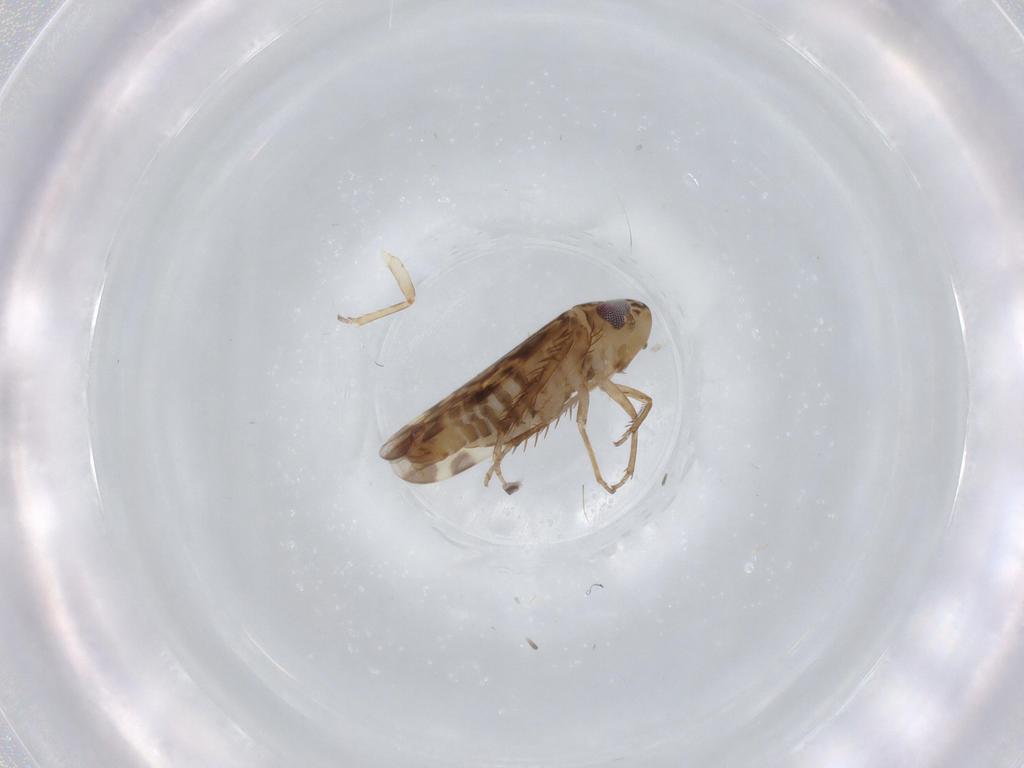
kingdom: Animalia
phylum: Arthropoda
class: Insecta
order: Hemiptera
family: Cicadellidae
